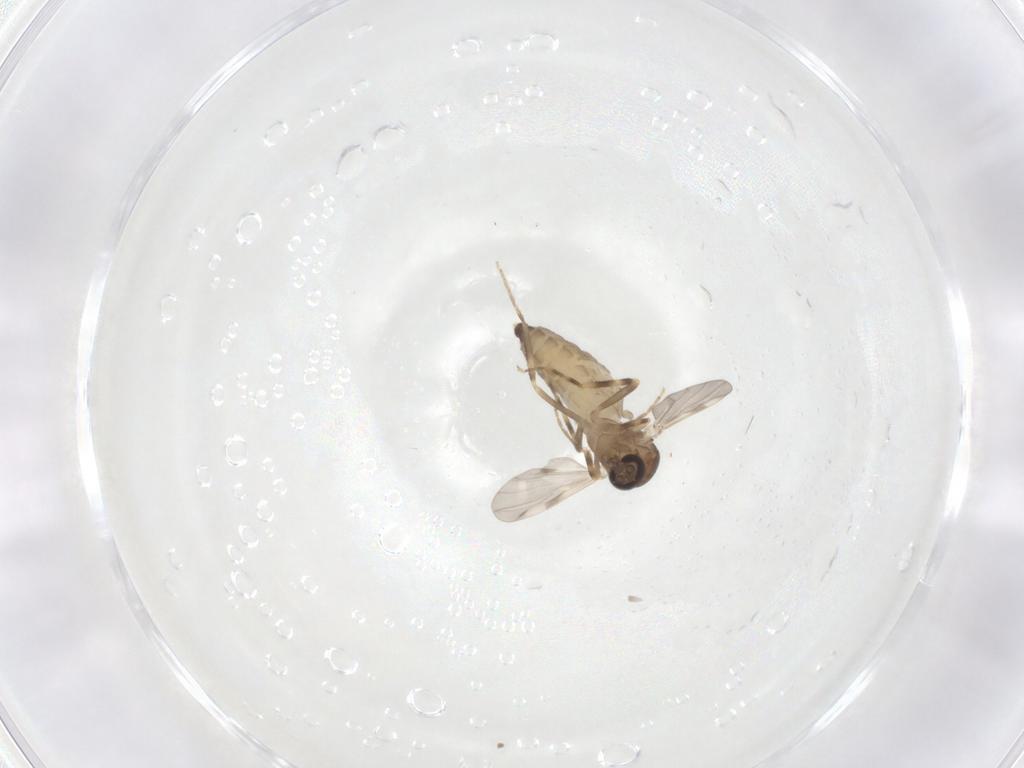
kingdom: Animalia
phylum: Arthropoda
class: Insecta
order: Diptera
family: Ceratopogonidae
